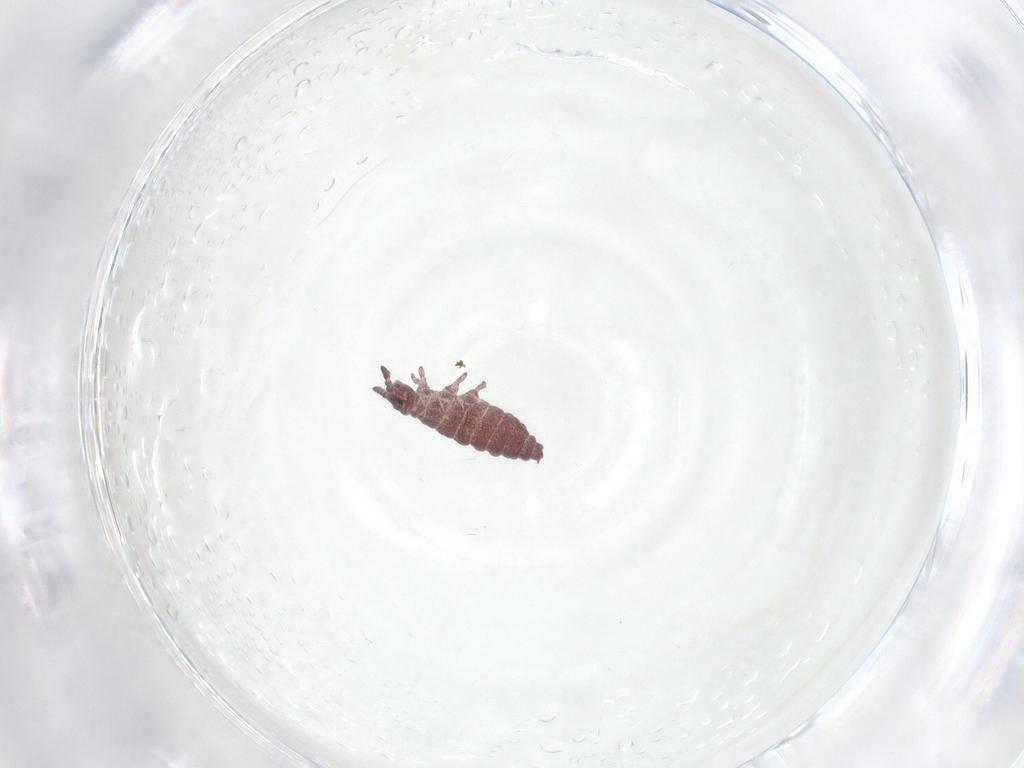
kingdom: Animalia
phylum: Arthropoda
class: Collembola
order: Poduromorpha
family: Hypogastruridae
